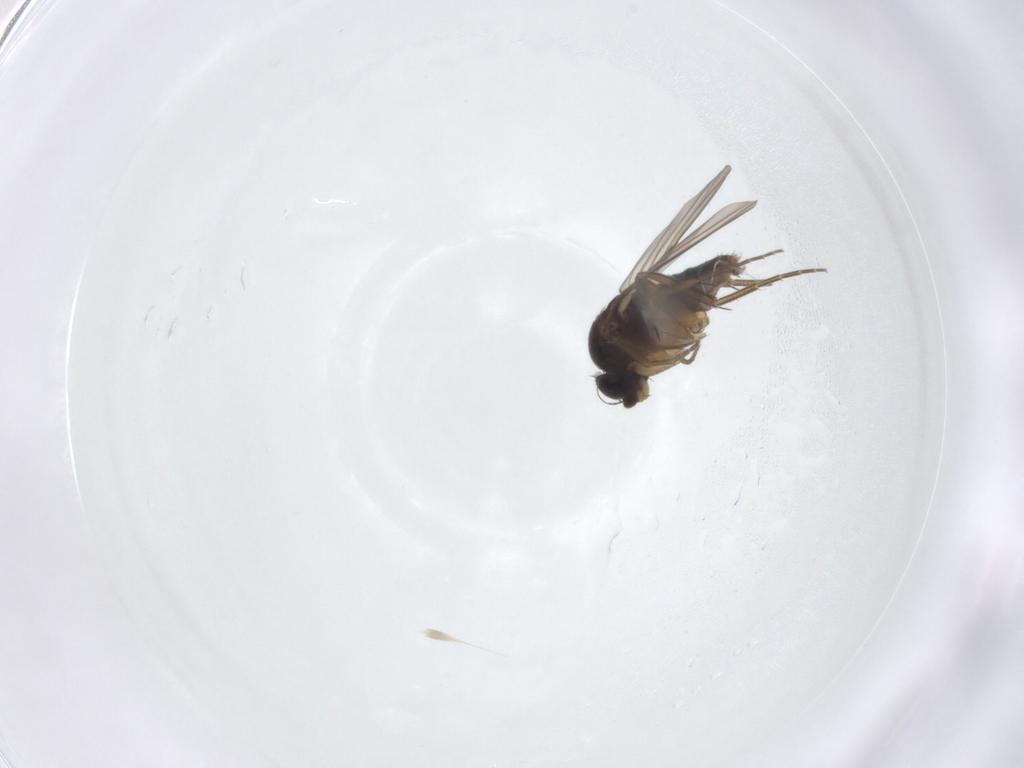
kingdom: Animalia
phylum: Arthropoda
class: Insecta
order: Diptera
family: Phoridae
